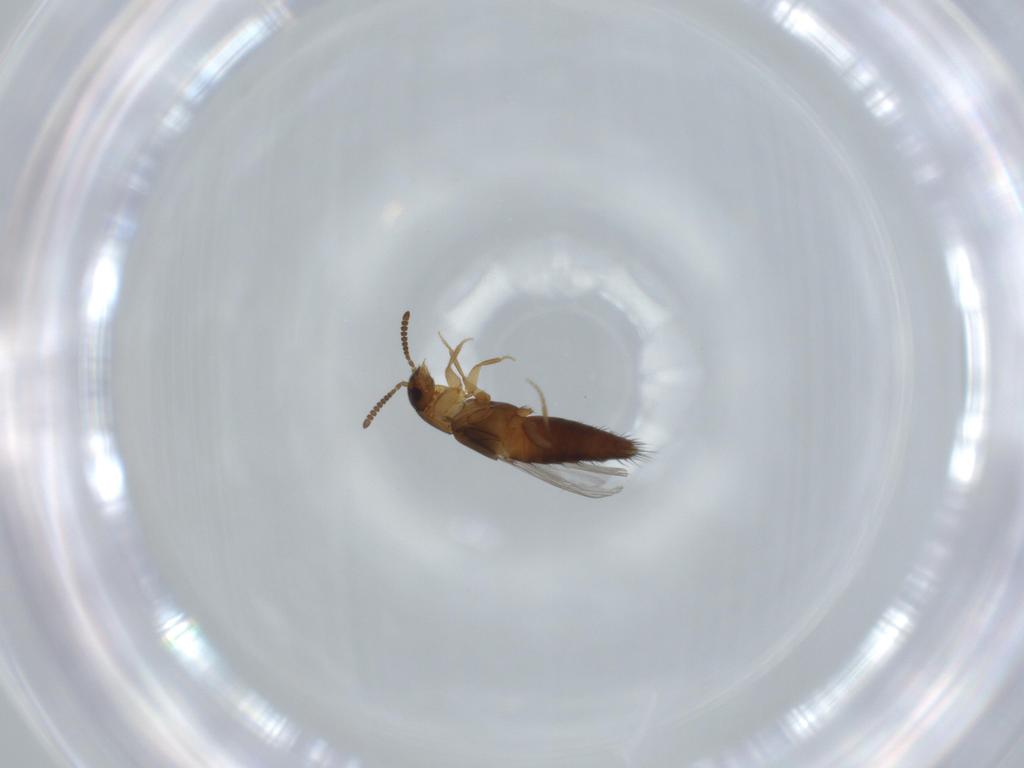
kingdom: Animalia
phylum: Arthropoda
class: Insecta
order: Coleoptera
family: Staphylinidae
